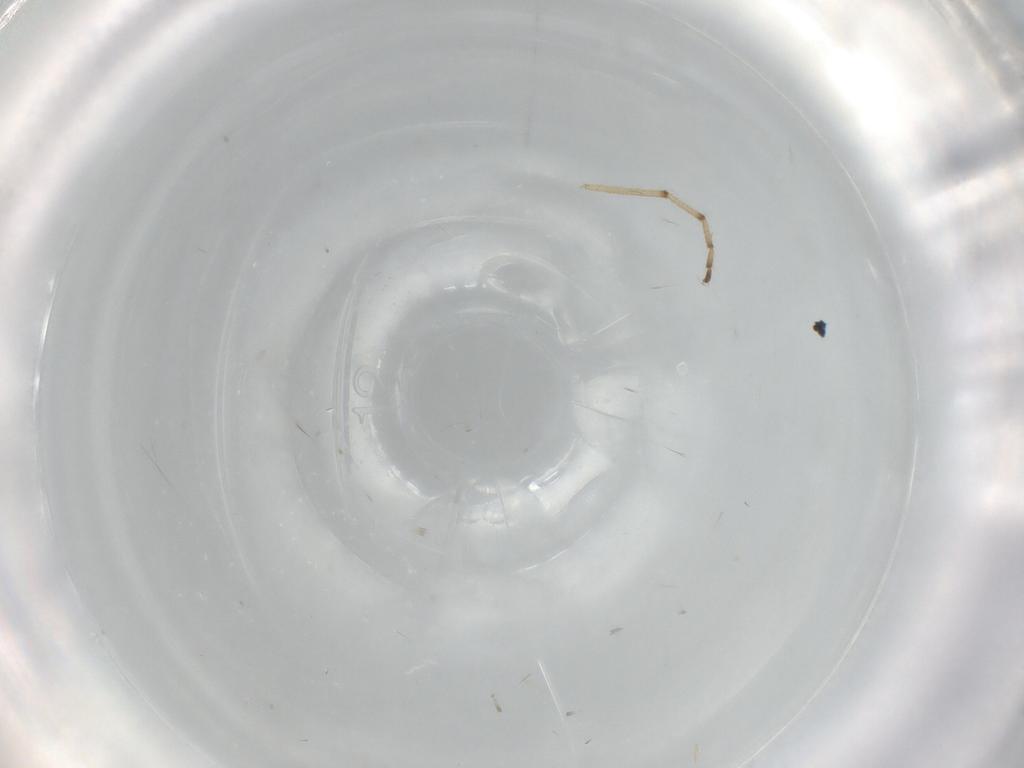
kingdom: Animalia
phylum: Arthropoda
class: Insecta
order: Diptera
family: Cecidomyiidae
